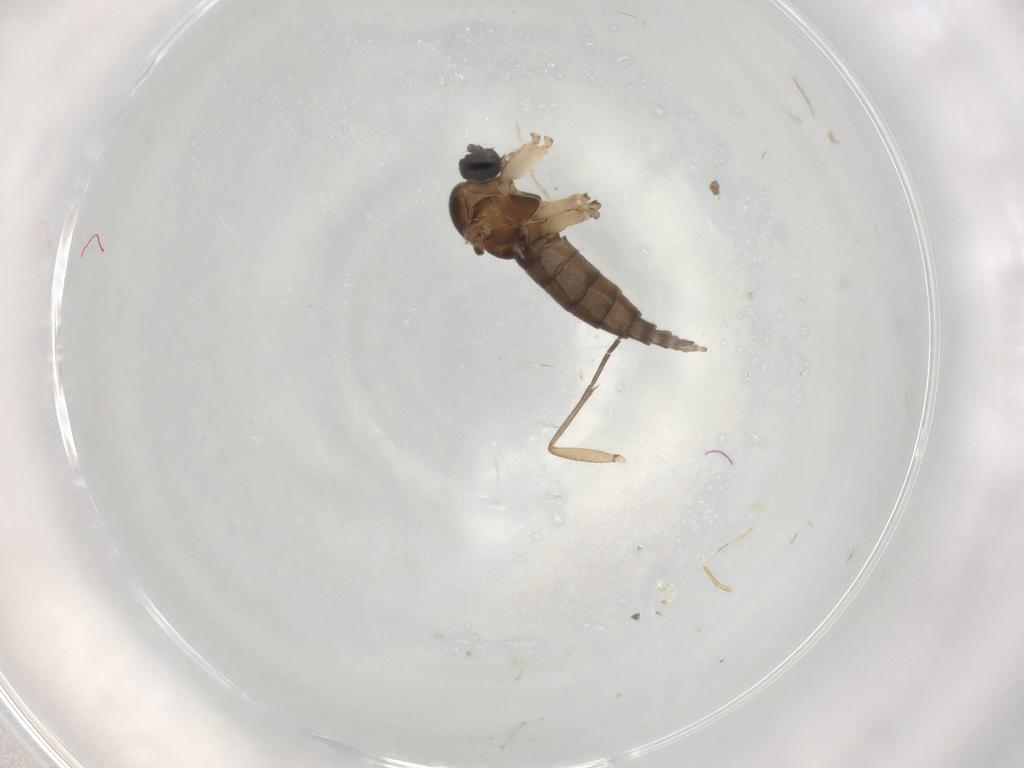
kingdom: Animalia
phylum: Arthropoda
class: Insecta
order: Diptera
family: Sciaridae
